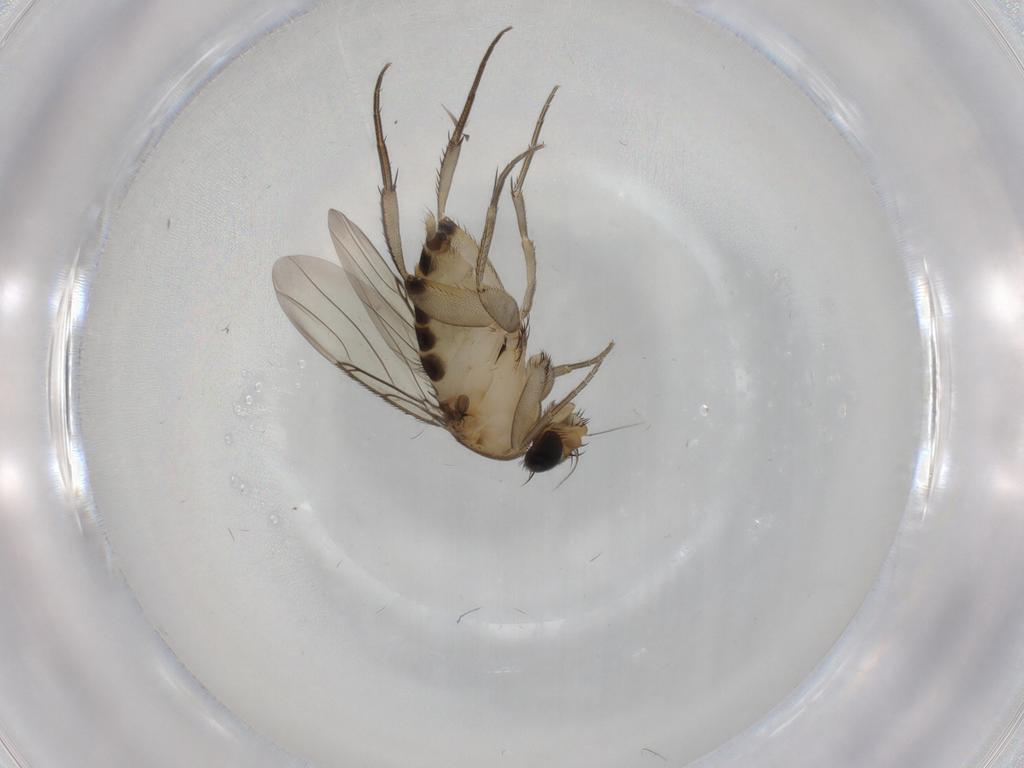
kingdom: Animalia
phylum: Arthropoda
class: Insecta
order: Diptera
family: Phoridae
